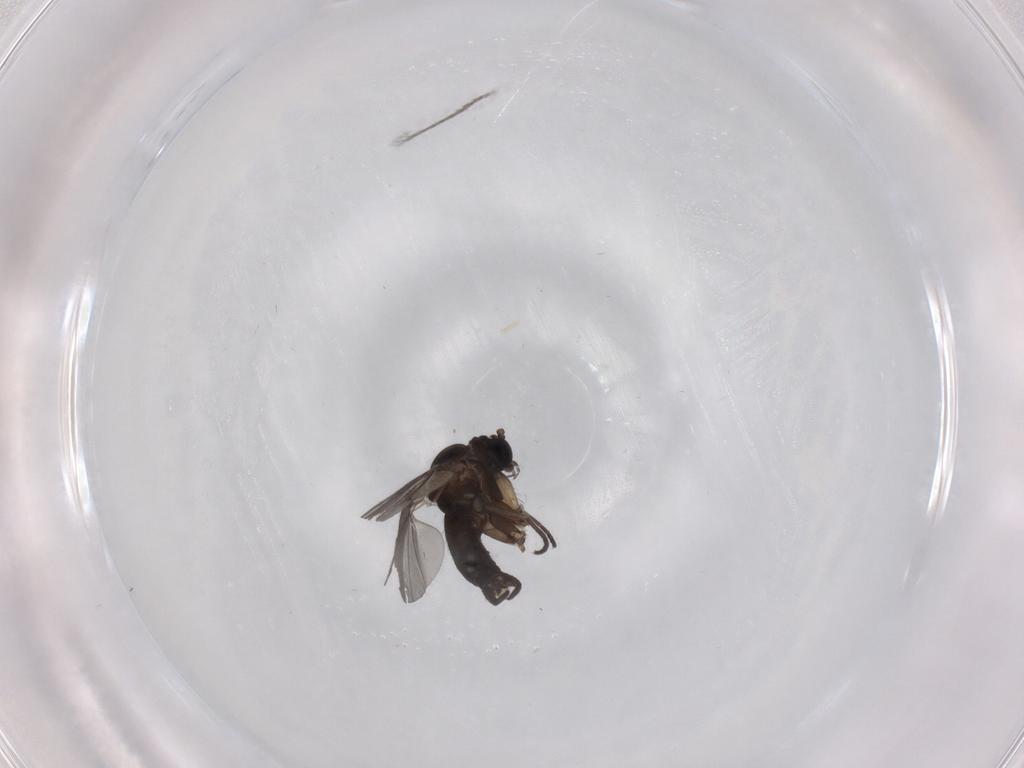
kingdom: Animalia
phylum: Arthropoda
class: Insecta
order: Diptera
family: Sciaridae
